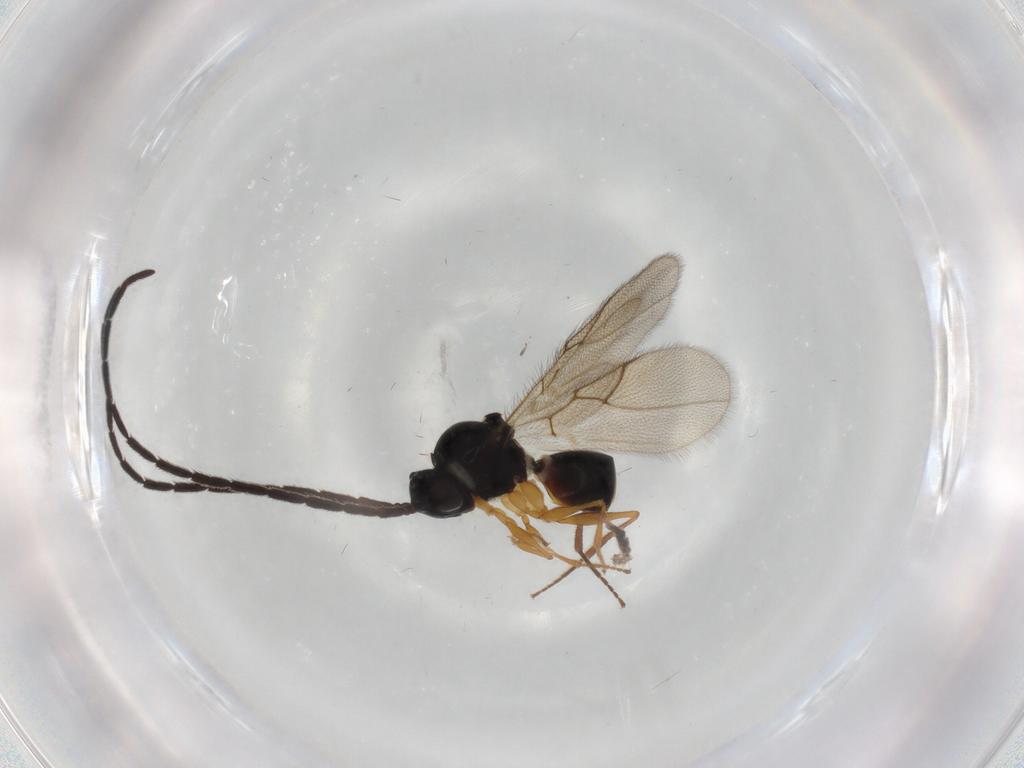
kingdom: Animalia
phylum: Arthropoda
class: Insecta
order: Hymenoptera
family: Figitidae
